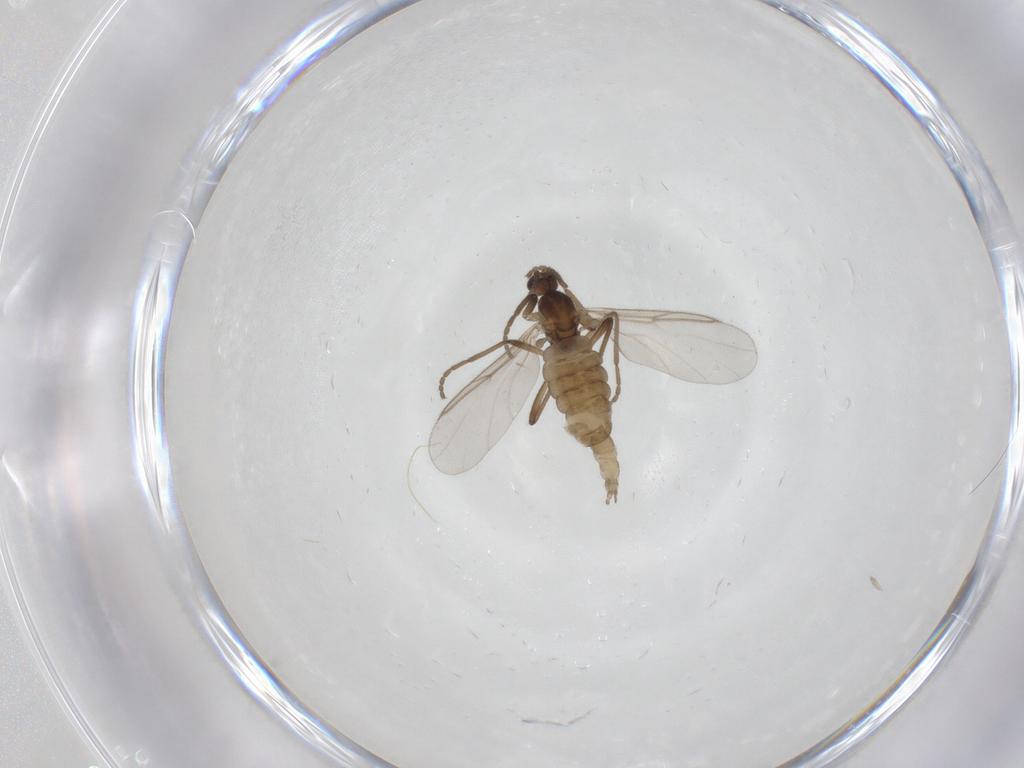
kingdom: Animalia
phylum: Arthropoda
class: Insecta
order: Diptera
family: Cecidomyiidae
